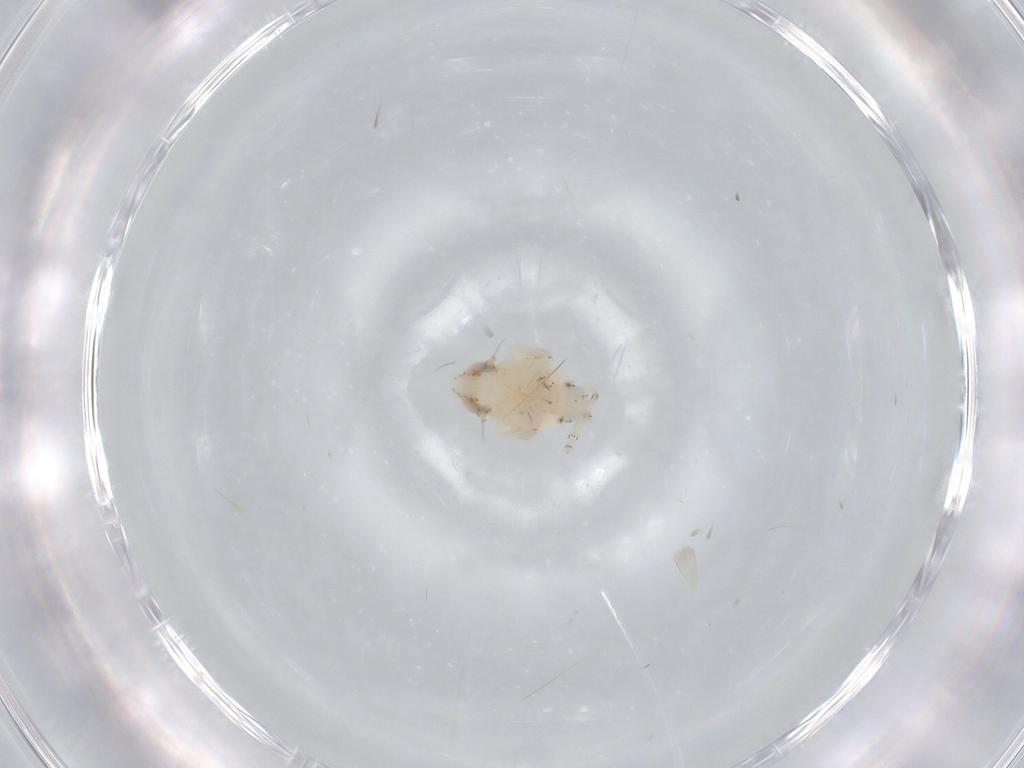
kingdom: Animalia
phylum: Arthropoda
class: Insecta
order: Hemiptera
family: Nogodinidae
